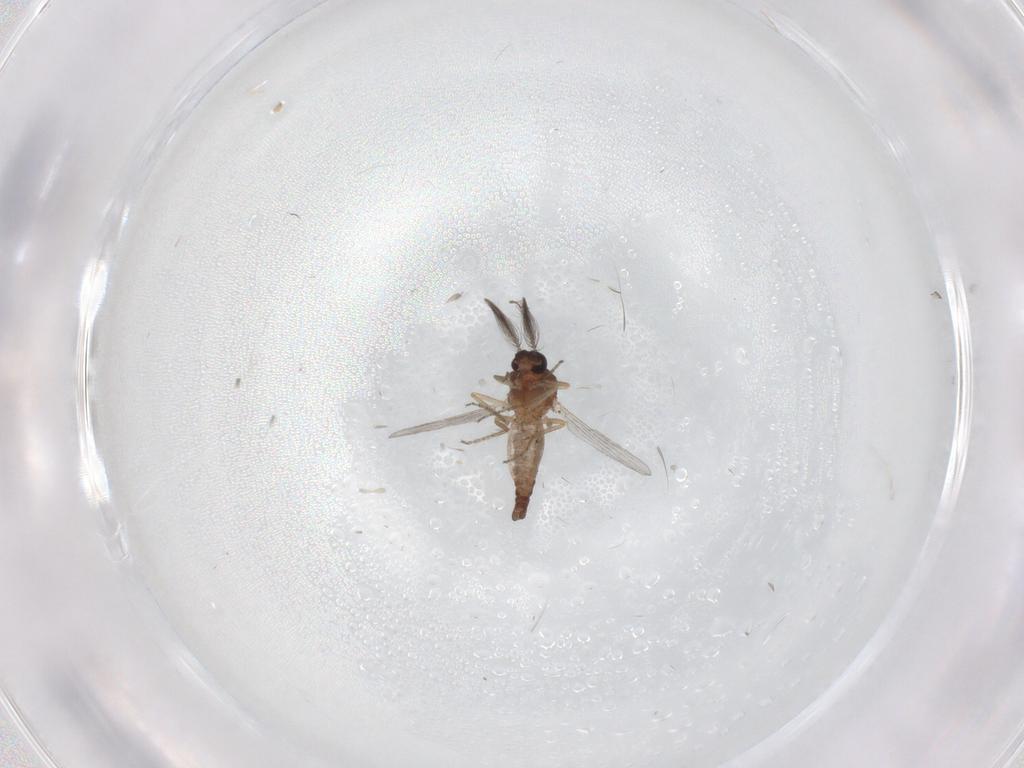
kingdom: Animalia
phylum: Arthropoda
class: Insecta
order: Diptera
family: Ceratopogonidae
